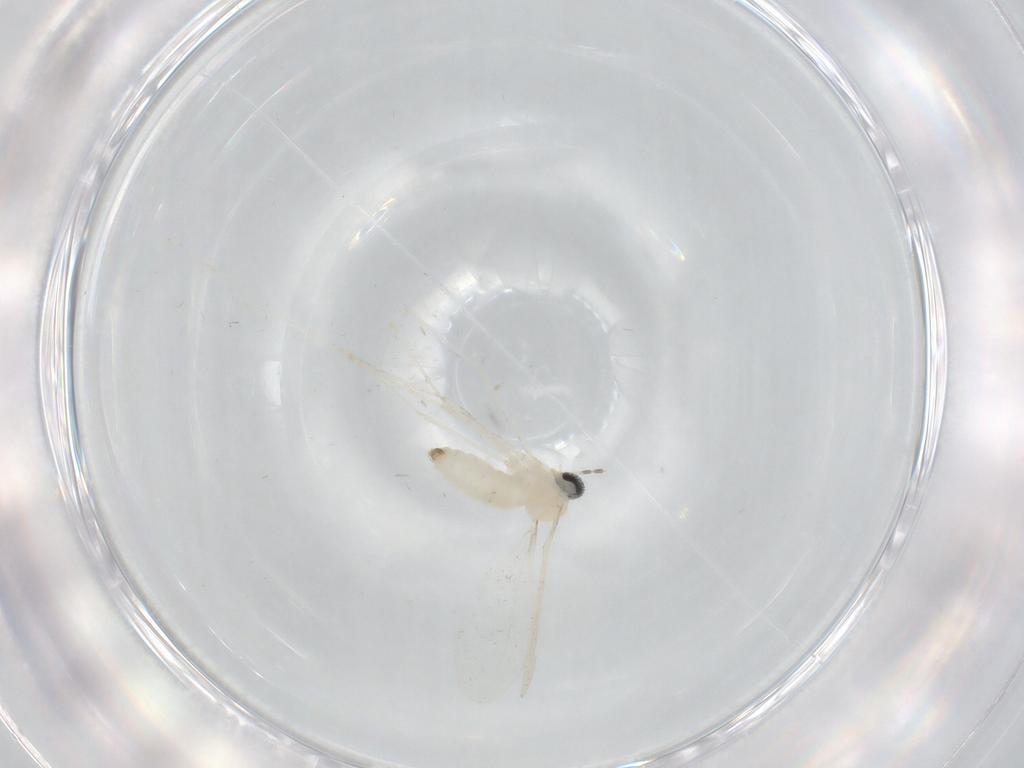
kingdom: Animalia
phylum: Arthropoda
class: Insecta
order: Diptera
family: Cecidomyiidae
